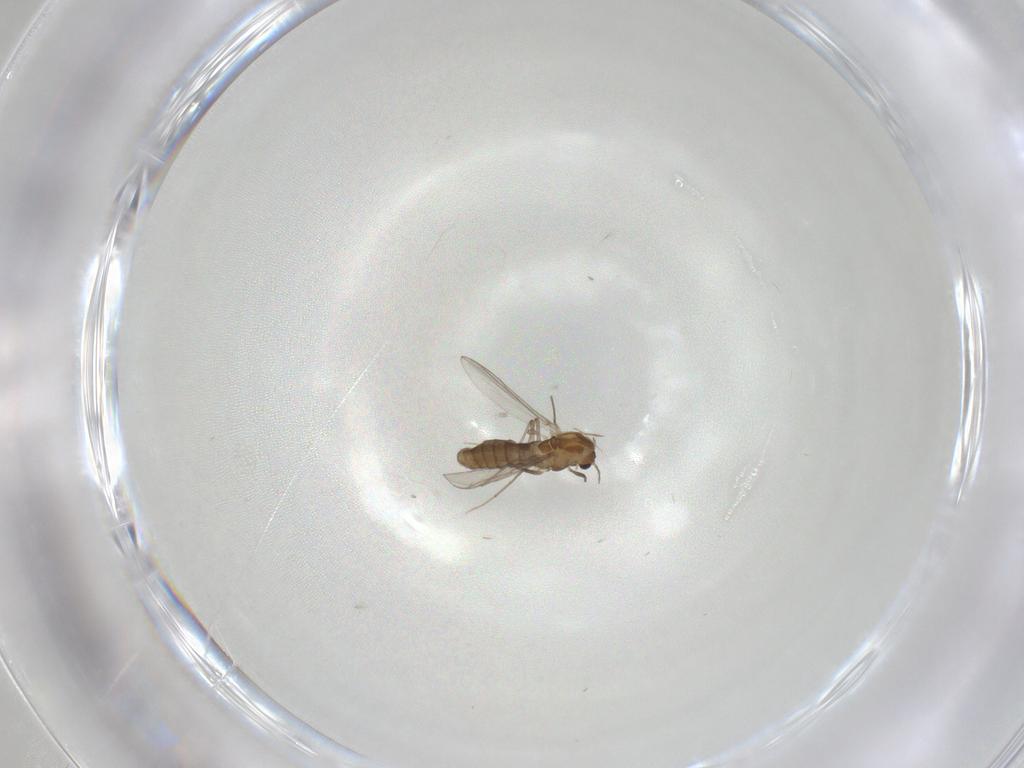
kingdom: Animalia
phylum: Arthropoda
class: Insecta
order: Diptera
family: Chironomidae
